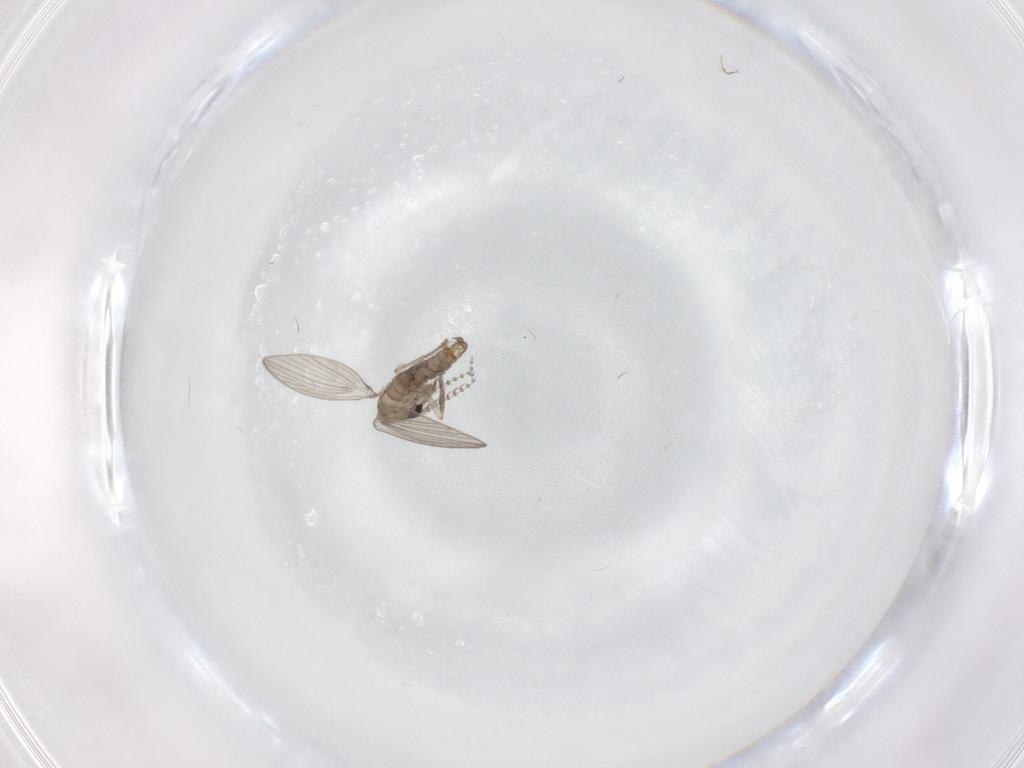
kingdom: Animalia
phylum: Arthropoda
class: Insecta
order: Diptera
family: Psychodidae
